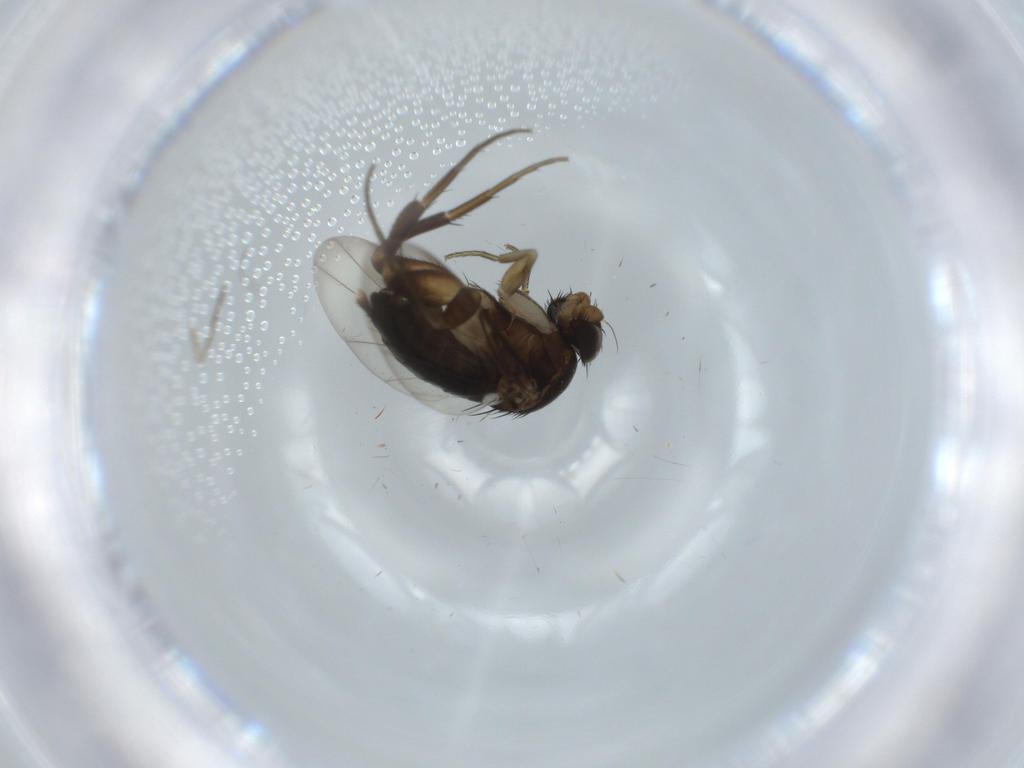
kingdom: Animalia
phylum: Arthropoda
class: Insecta
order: Diptera
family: Phoridae
